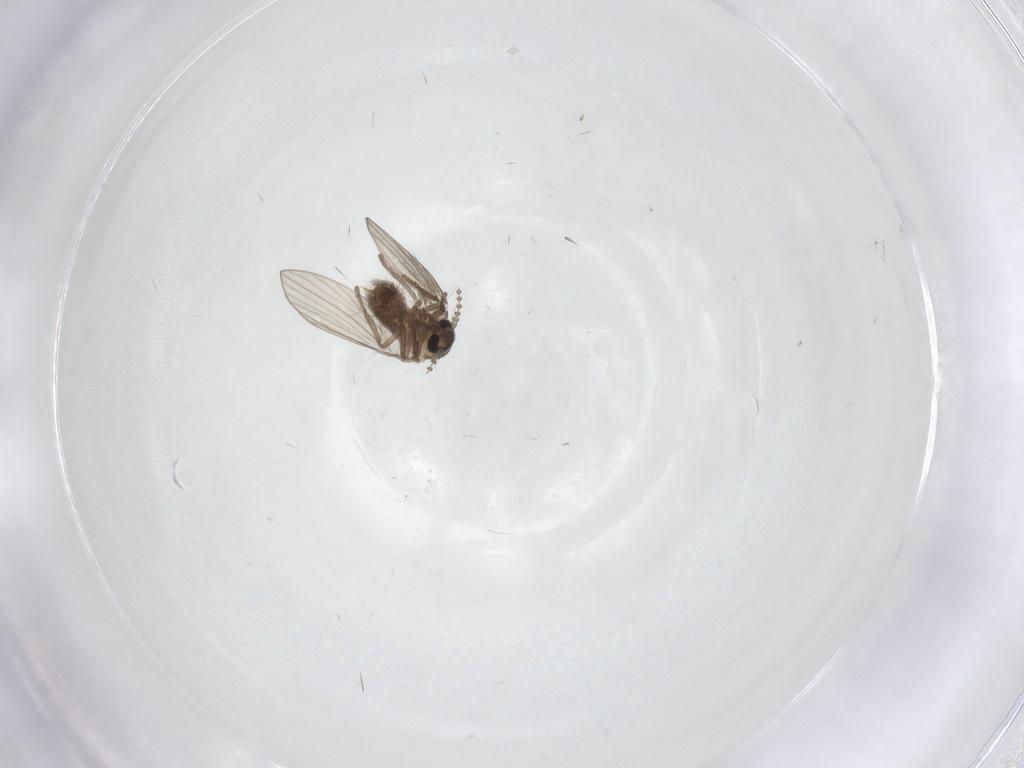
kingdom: Animalia
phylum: Arthropoda
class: Insecta
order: Diptera
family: Psychodidae
